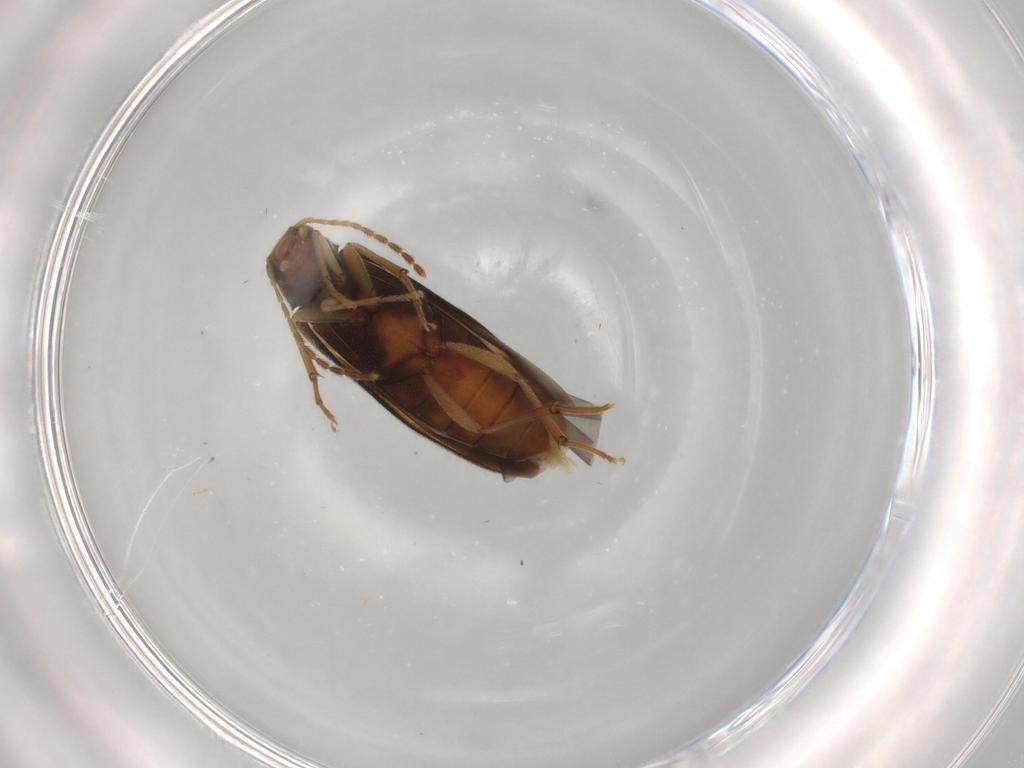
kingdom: Animalia
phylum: Arthropoda
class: Insecta
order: Coleoptera
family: Melandryidae
